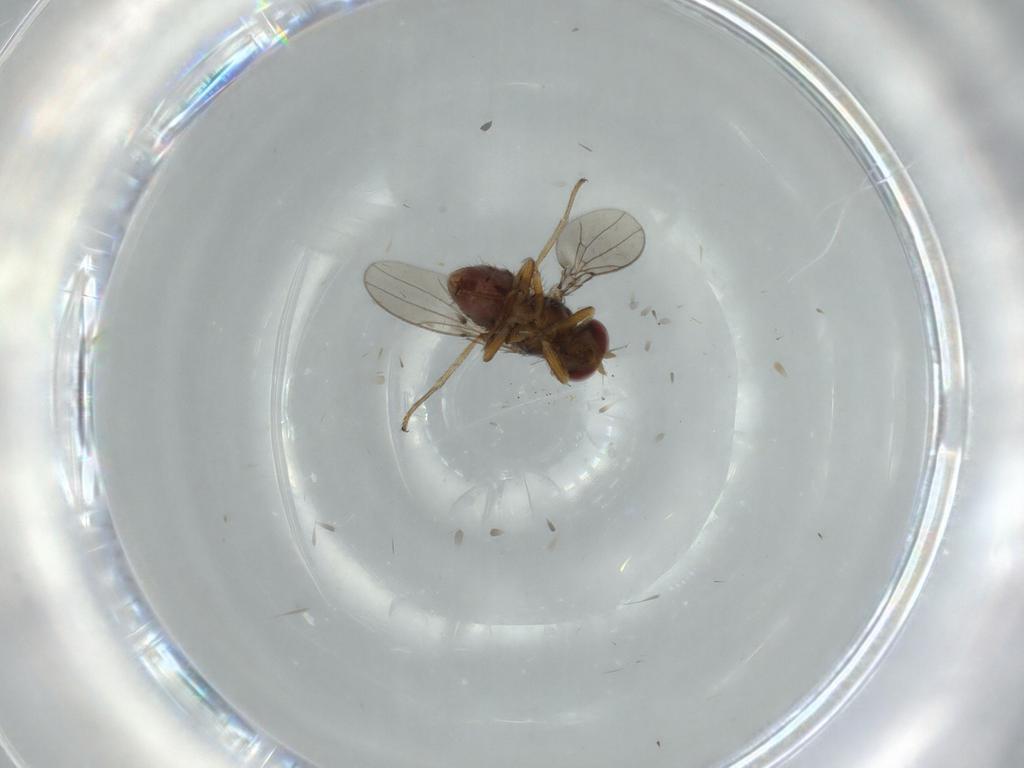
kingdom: Animalia
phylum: Arthropoda
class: Insecta
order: Diptera
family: Ephydridae
